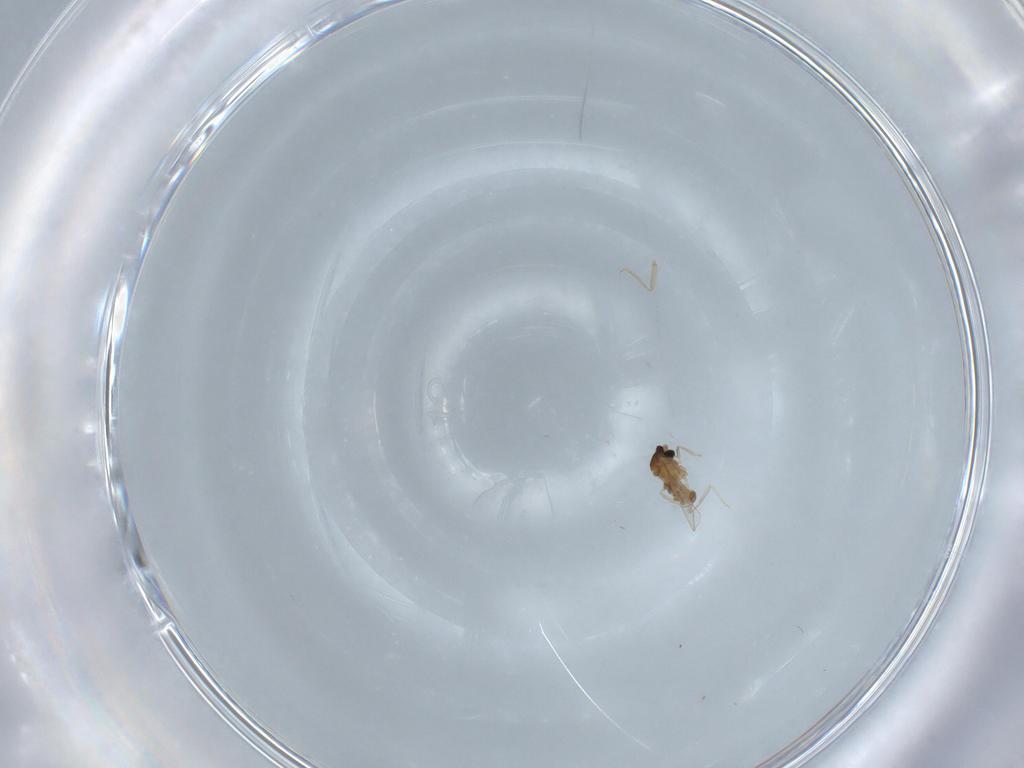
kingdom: Animalia
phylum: Arthropoda
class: Insecta
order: Diptera
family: Cecidomyiidae
